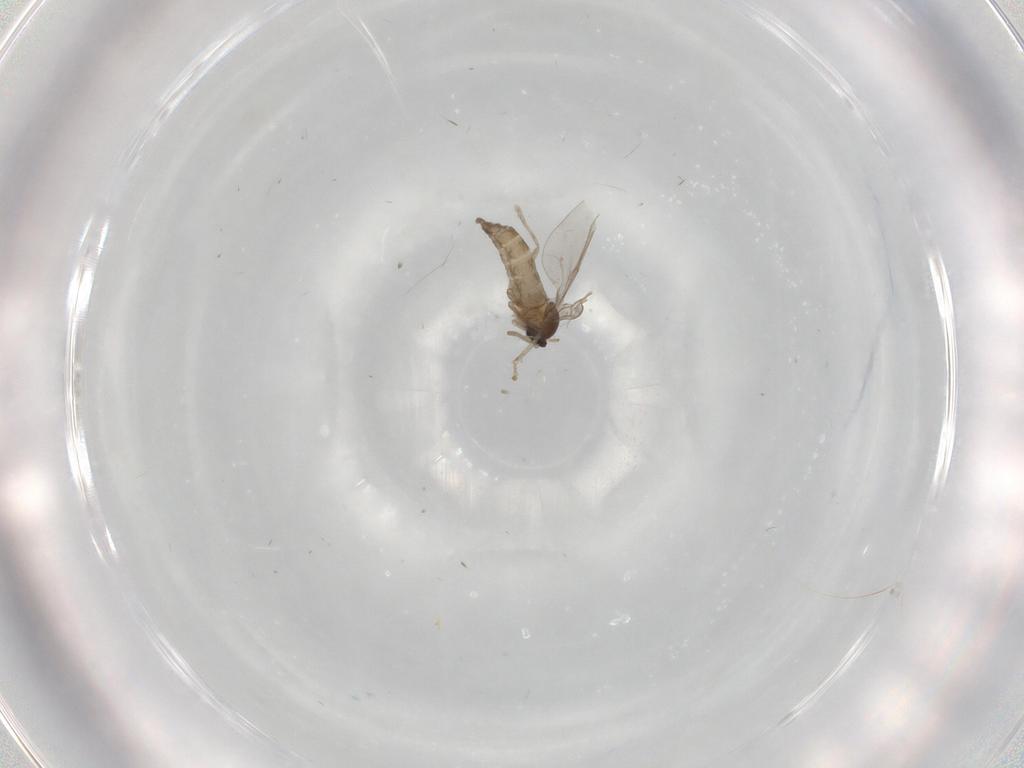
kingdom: Animalia
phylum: Arthropoda
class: Insecta
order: Diptera
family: Cecidomyiidae
